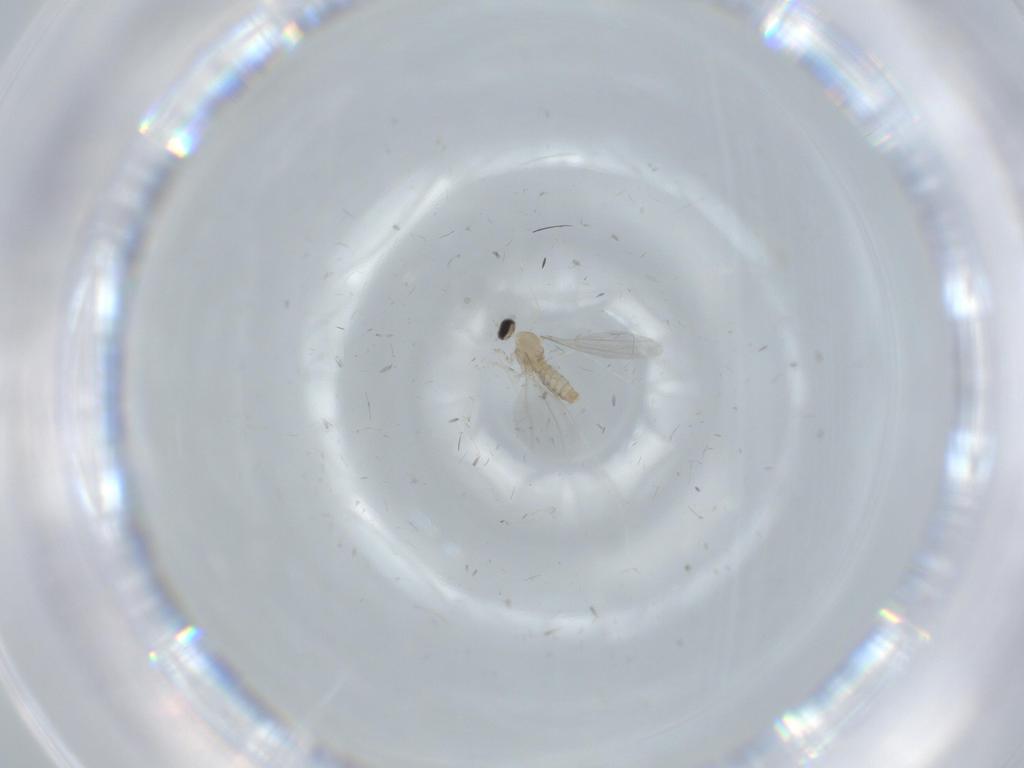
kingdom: Animalia
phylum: Arthropoda
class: Insecta
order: Diptera
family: Cecidomyiidae
